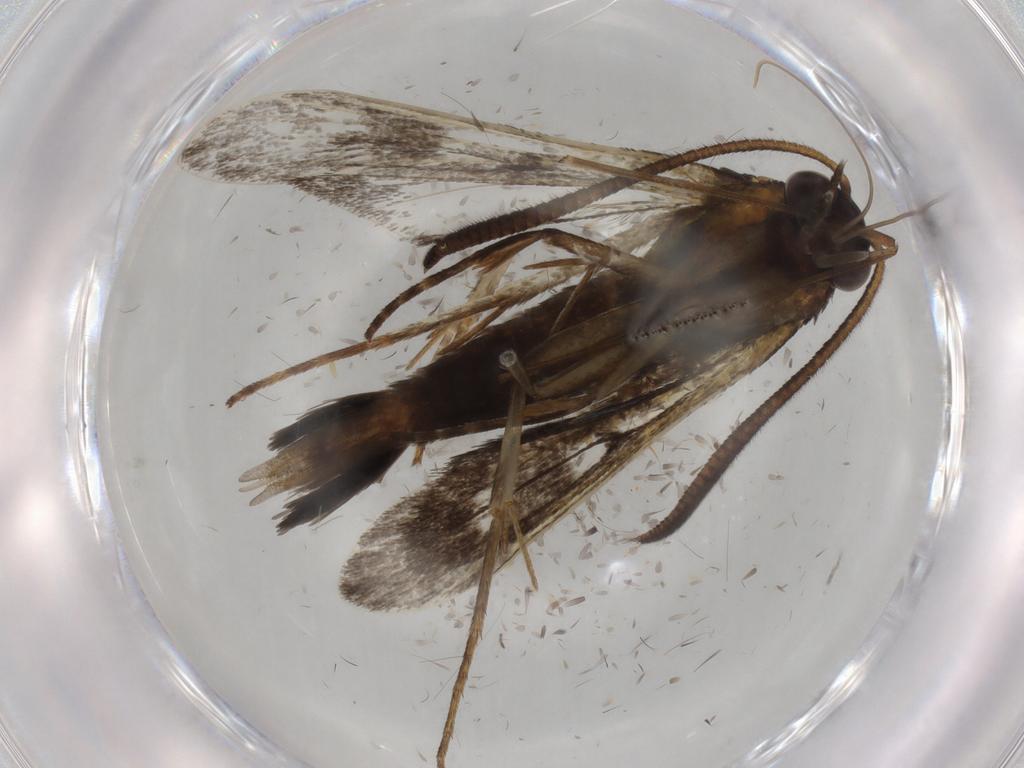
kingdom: Animalia
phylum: Arthropoda
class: Insecta
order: Lepidoptera
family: Sesiidae
